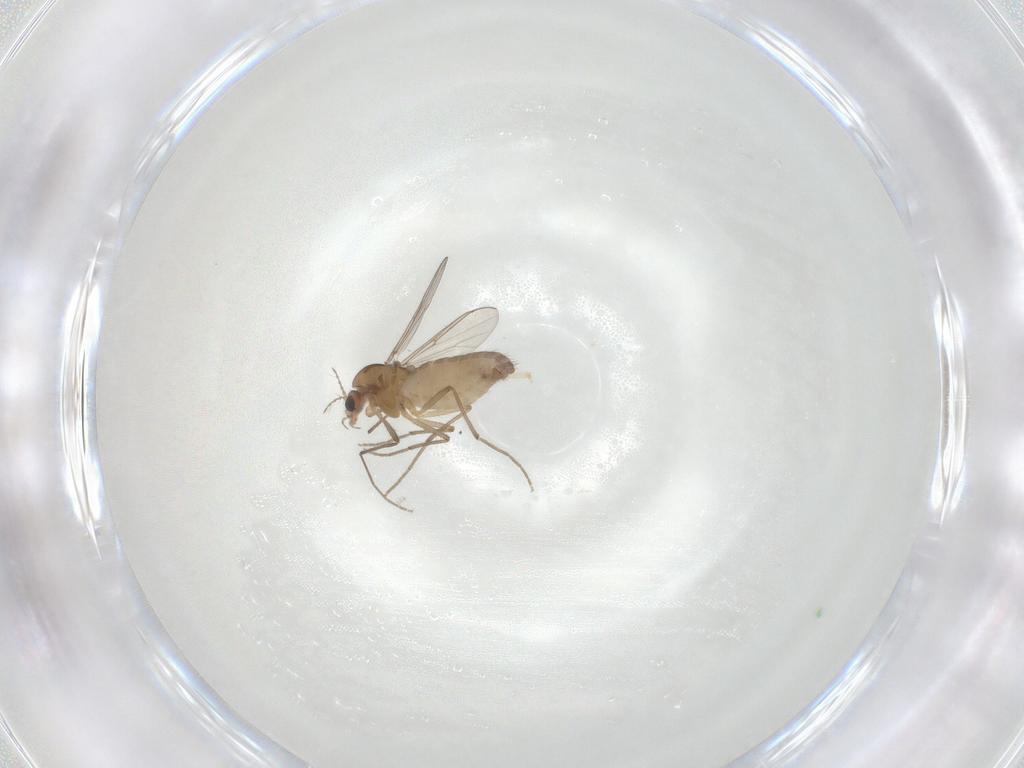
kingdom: Animalia
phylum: Arthropoda
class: Insecta
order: Diptera
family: Chironomidae
